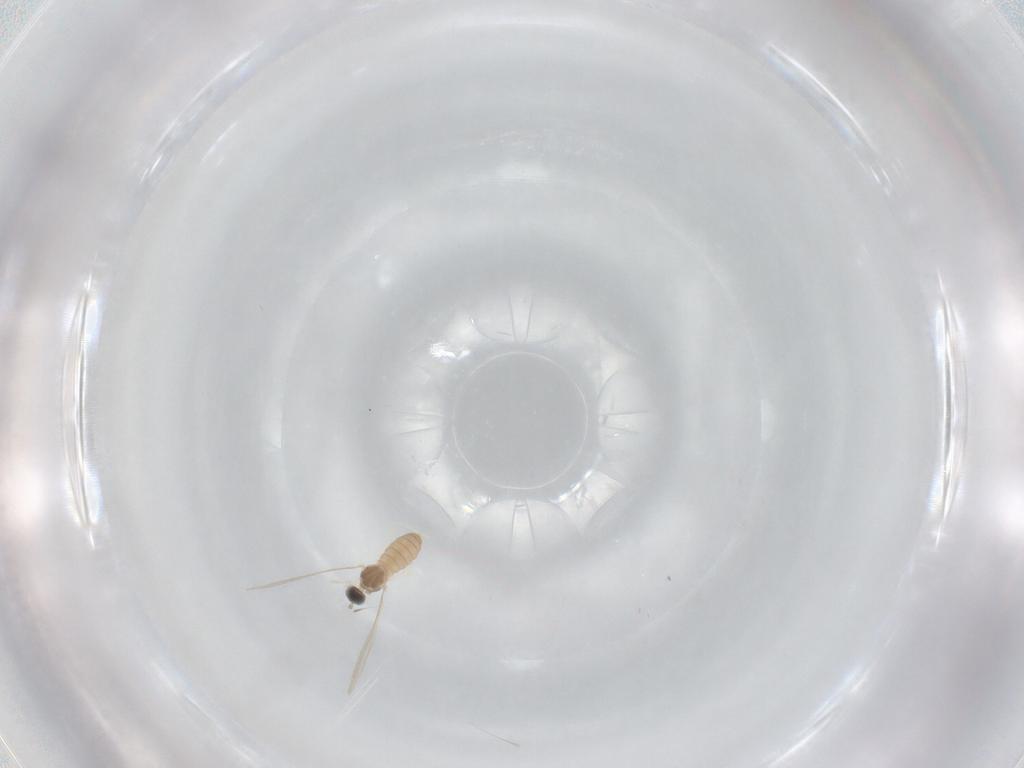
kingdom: Animalia
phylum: Arthropoda
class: Insecta
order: Diptera
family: Cecidomyiidae
